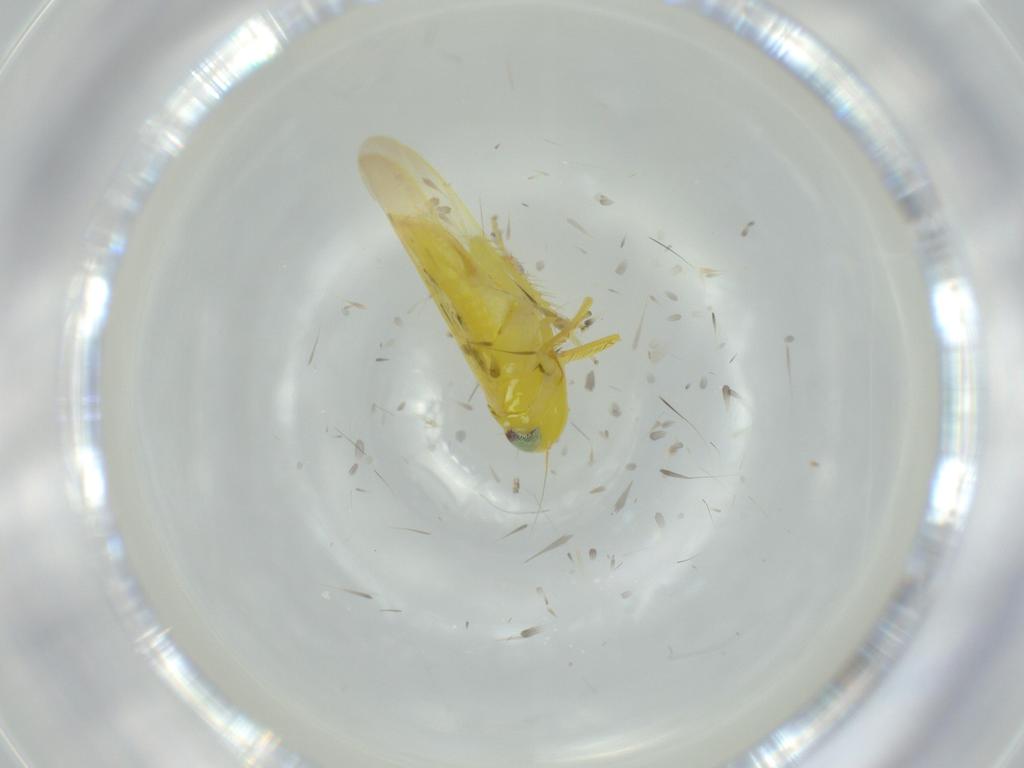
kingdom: Animalia
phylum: Arthropoda
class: Insecta
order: Hemiptera
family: Cicadellidae
